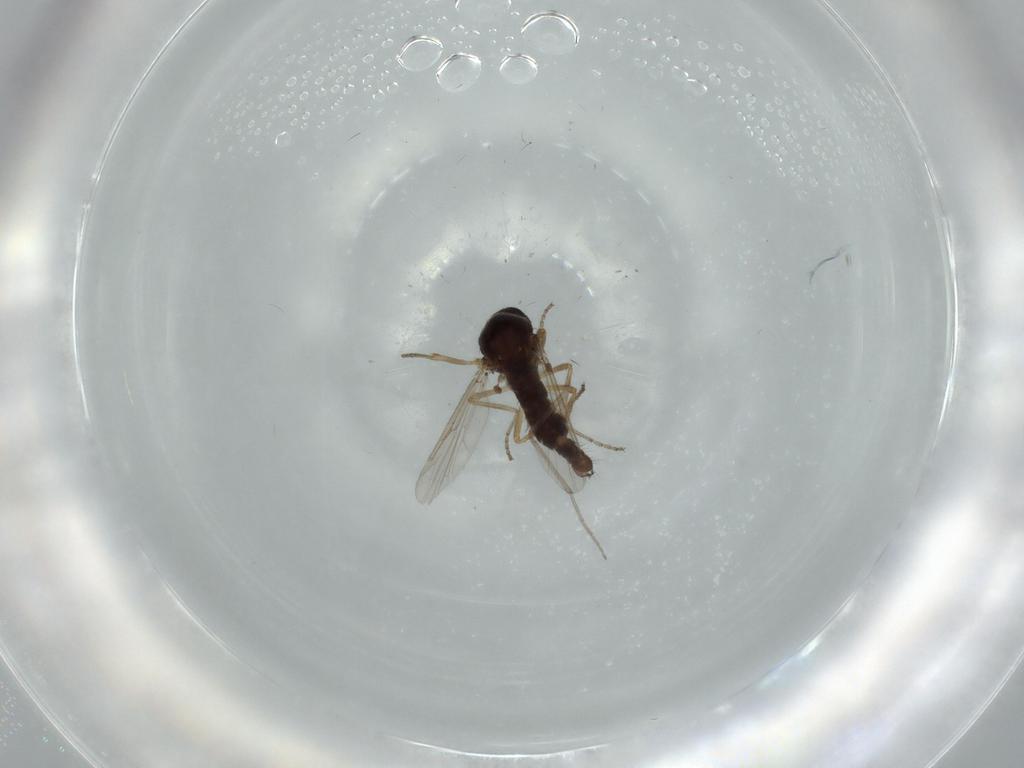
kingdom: Animalia
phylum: Arthropoda
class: Insecta
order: Diptera
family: Ceratopogonidae
